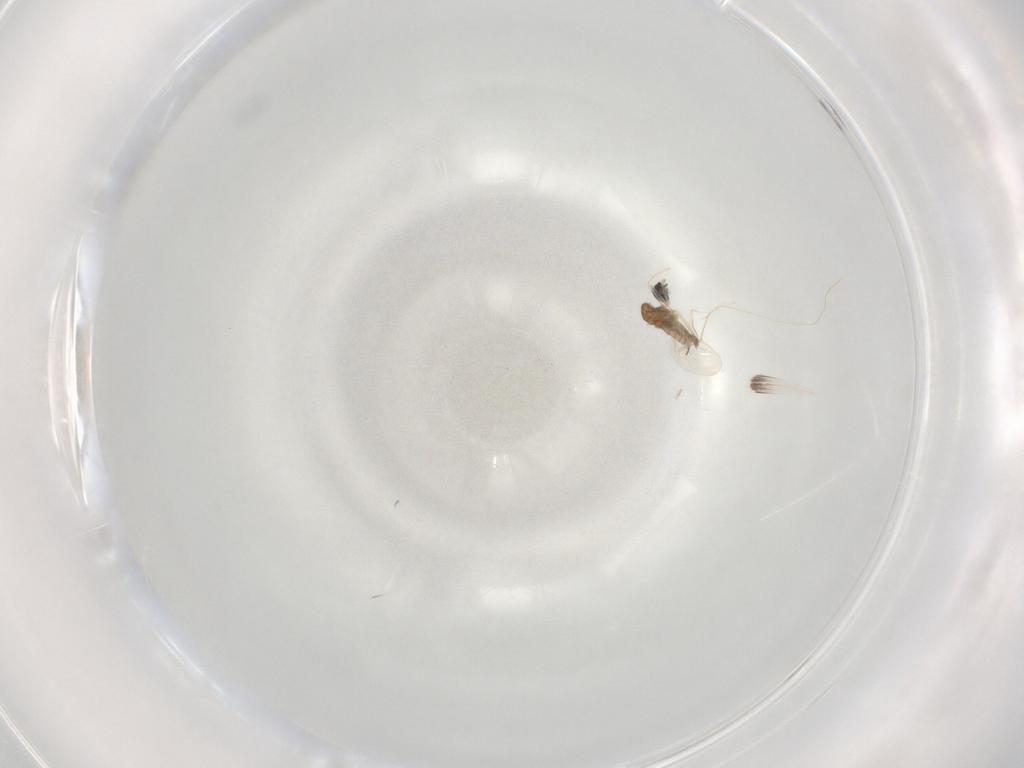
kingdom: Animalia
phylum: Arthropoda
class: Insecta
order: Diptera
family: Cecidomyiidae
